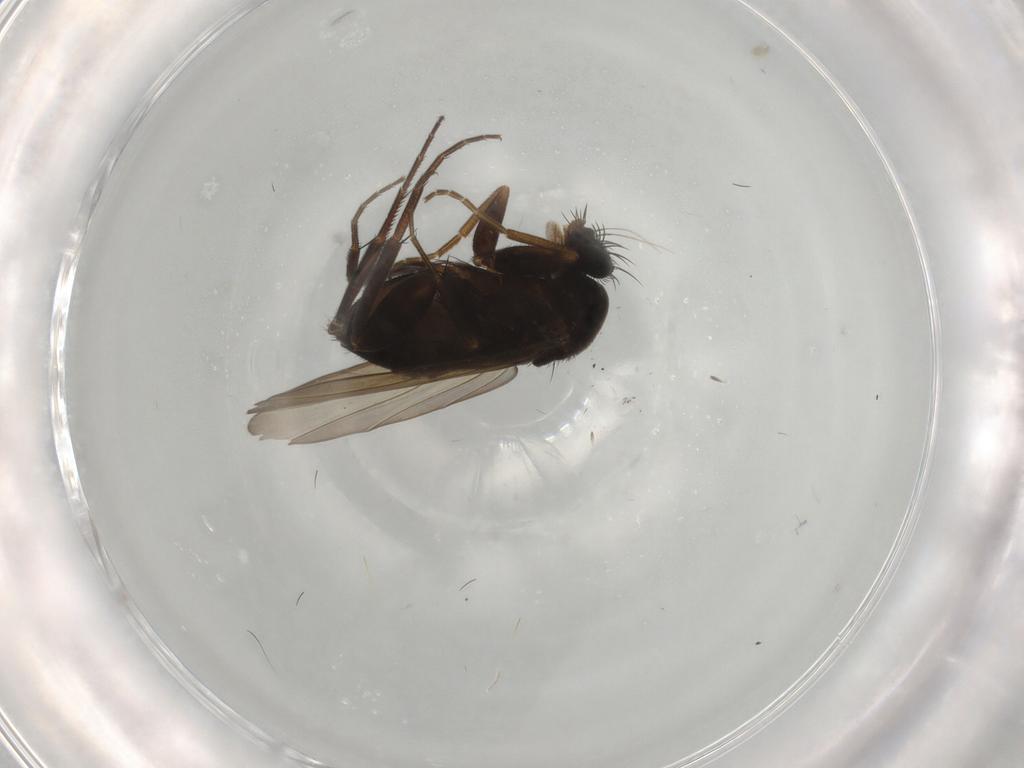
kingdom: Animalia
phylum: Arthropoda
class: Insecta
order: Diptera
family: Phoridae
